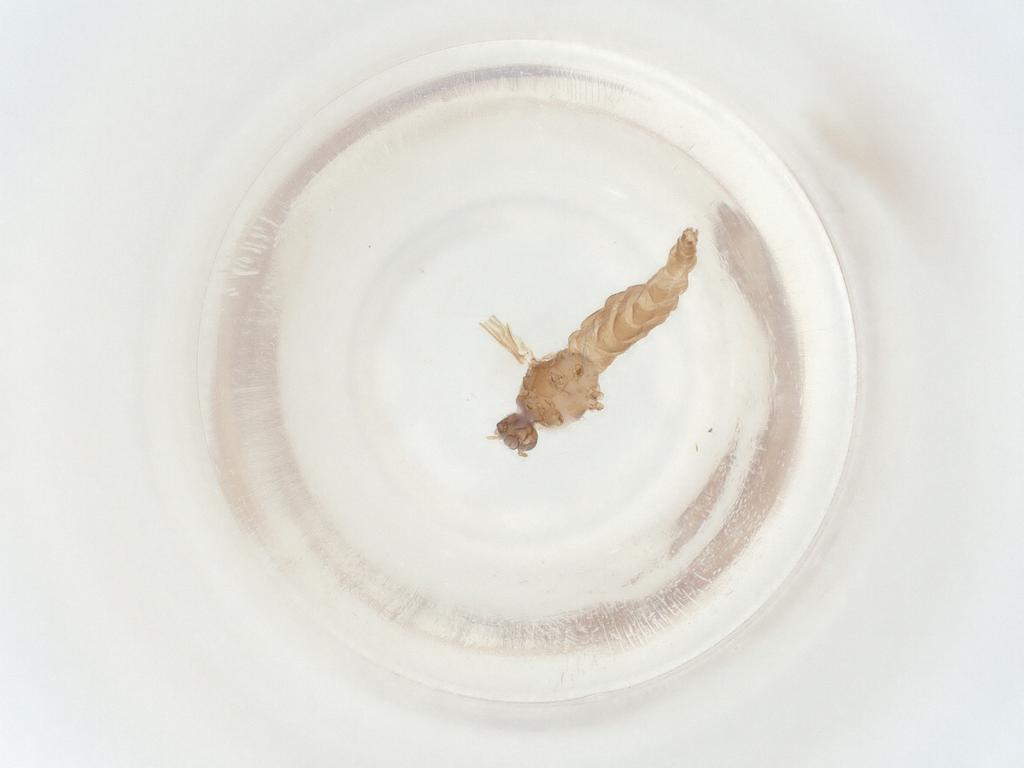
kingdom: Animalia
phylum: Arthropoda
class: Insecta
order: Diptera
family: Sciaridae
